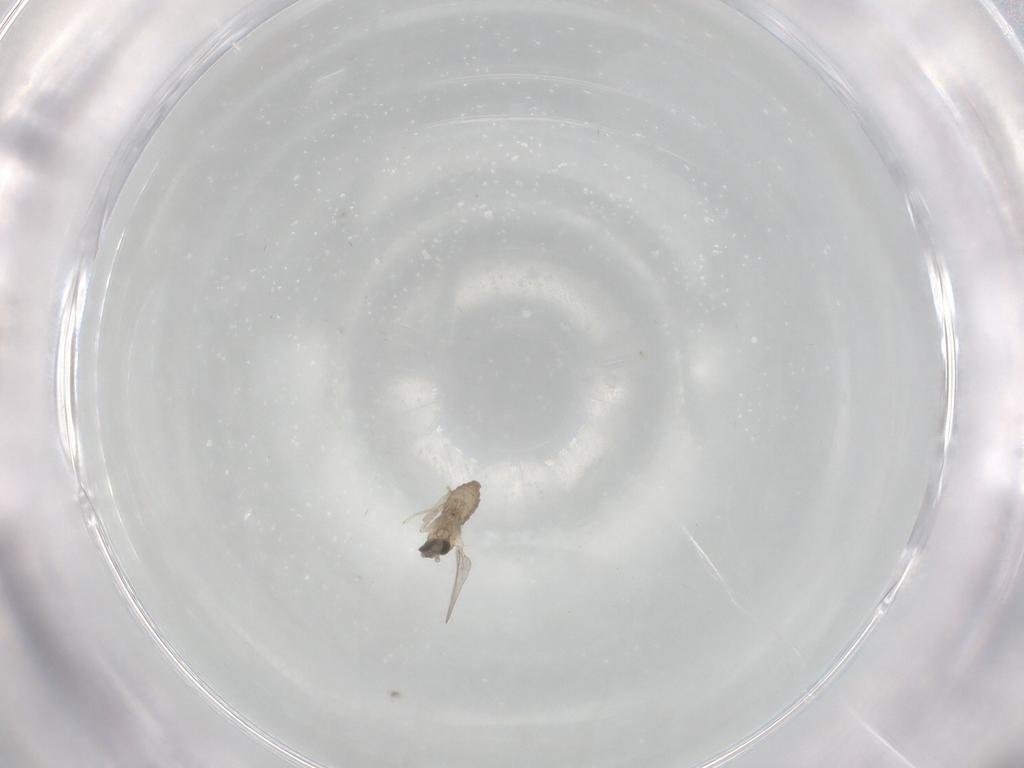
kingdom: Animalia
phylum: Arthropoda
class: Insecta
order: Diptera
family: Cecidomyiidae
